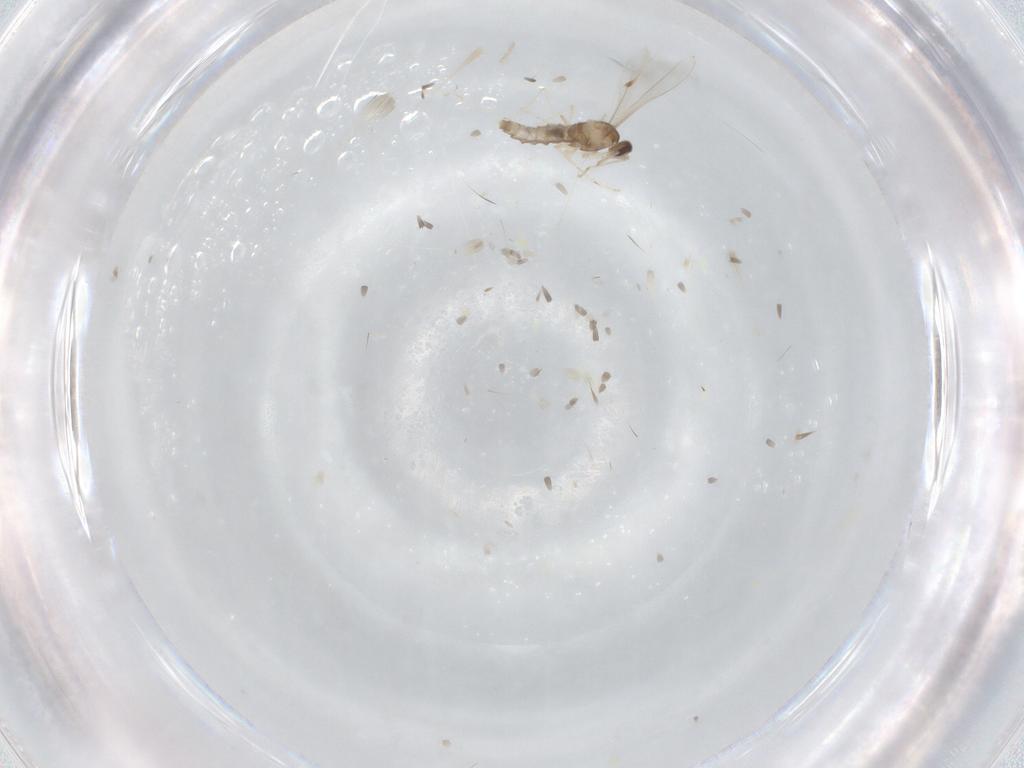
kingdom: Animalia
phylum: Arthropoda
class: Insecta
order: Diptera
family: Cecidomyiidae
